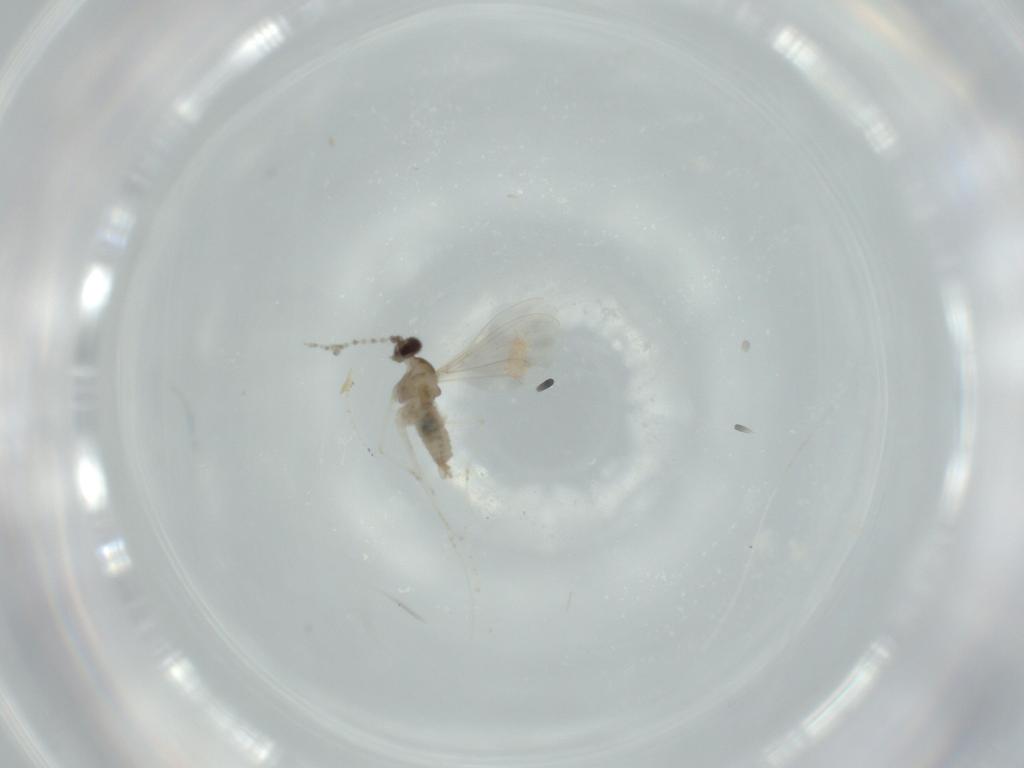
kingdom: Animalia
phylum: Arthropoda
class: Insecta
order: Diptera
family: Cecidomyiidae
